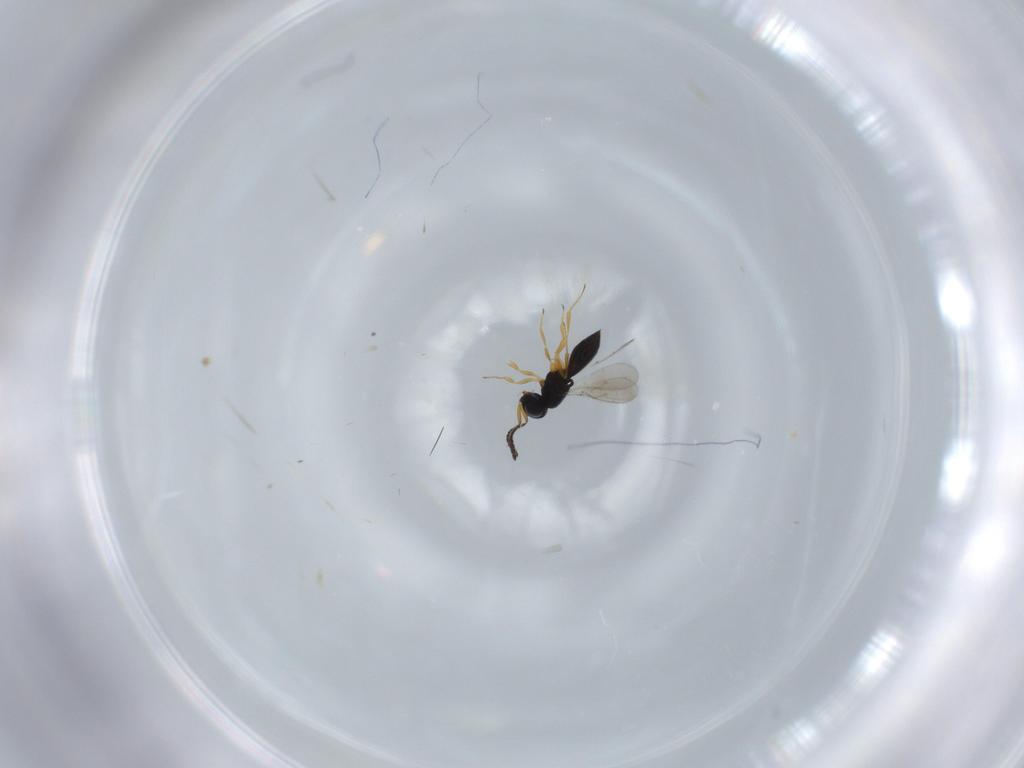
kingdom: Animalia
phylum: Arthropoda
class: Insecta
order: Hymenoptera
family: Scelionidae
